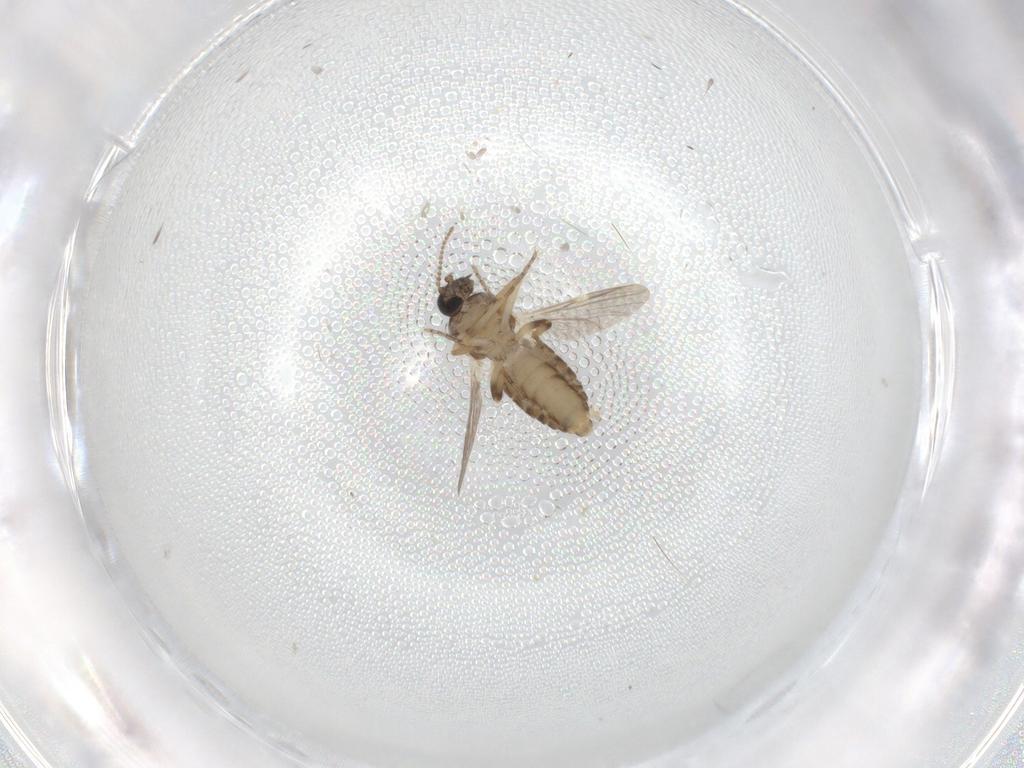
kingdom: Animalia
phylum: Arthropoda
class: Insecta
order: Diptera
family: Ceratopogonidae
